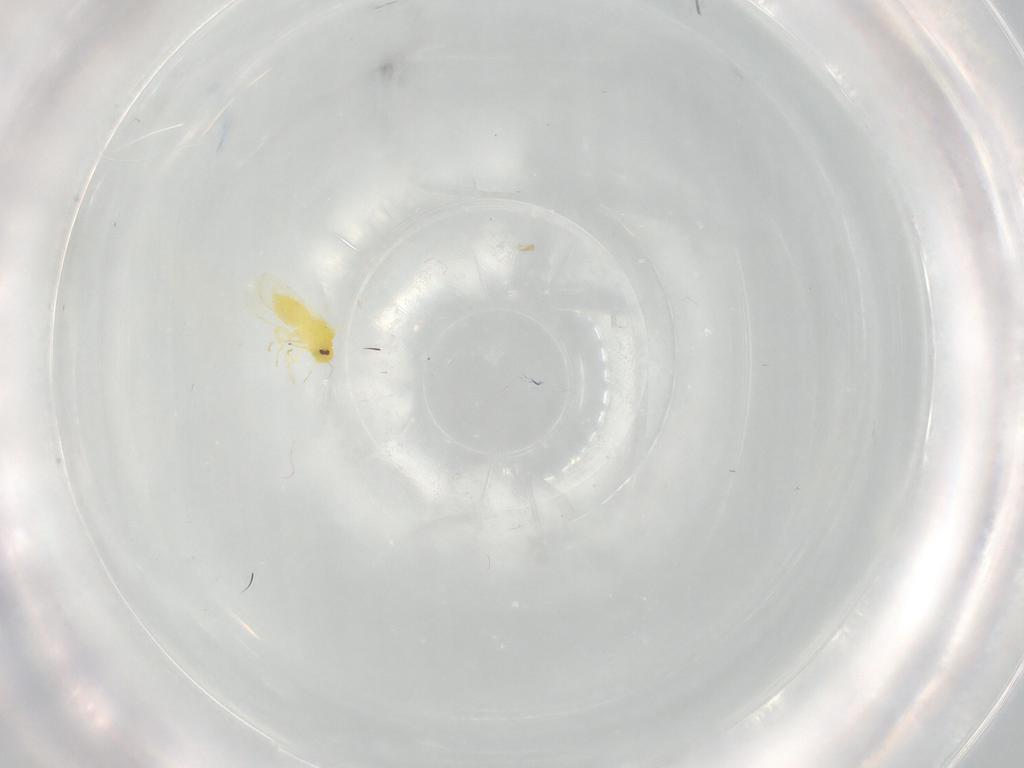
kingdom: Animalia
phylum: Arthropoda
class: Insecta
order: Hemiptera
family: Aleyrodidae
